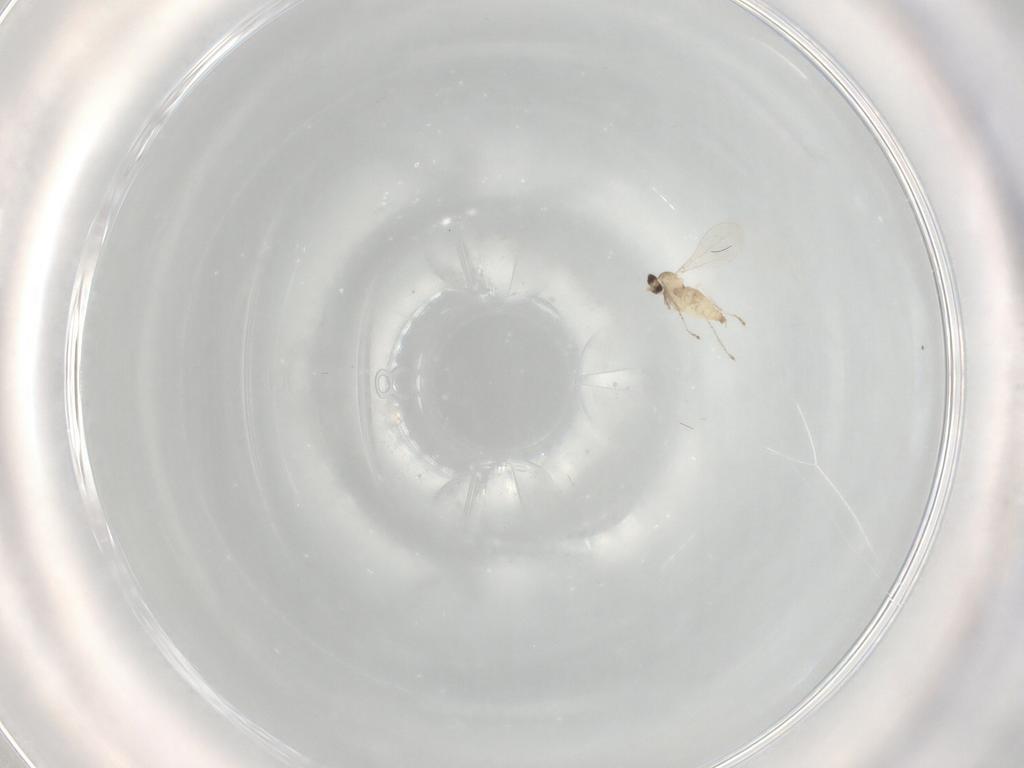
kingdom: Animalia
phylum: Arthropoda
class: Insecta
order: Diptera
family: Cecidomyiidae
